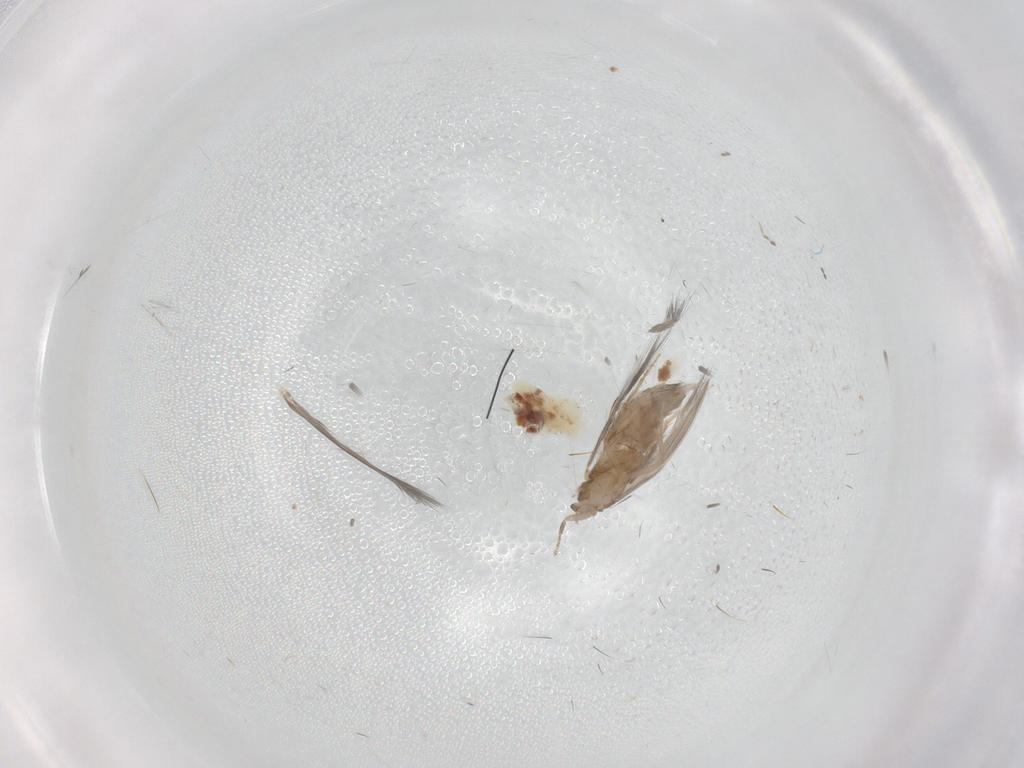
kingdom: Animalia
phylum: Arthropoda
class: Insecta
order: Trichoptera
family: Hydroptilidae
